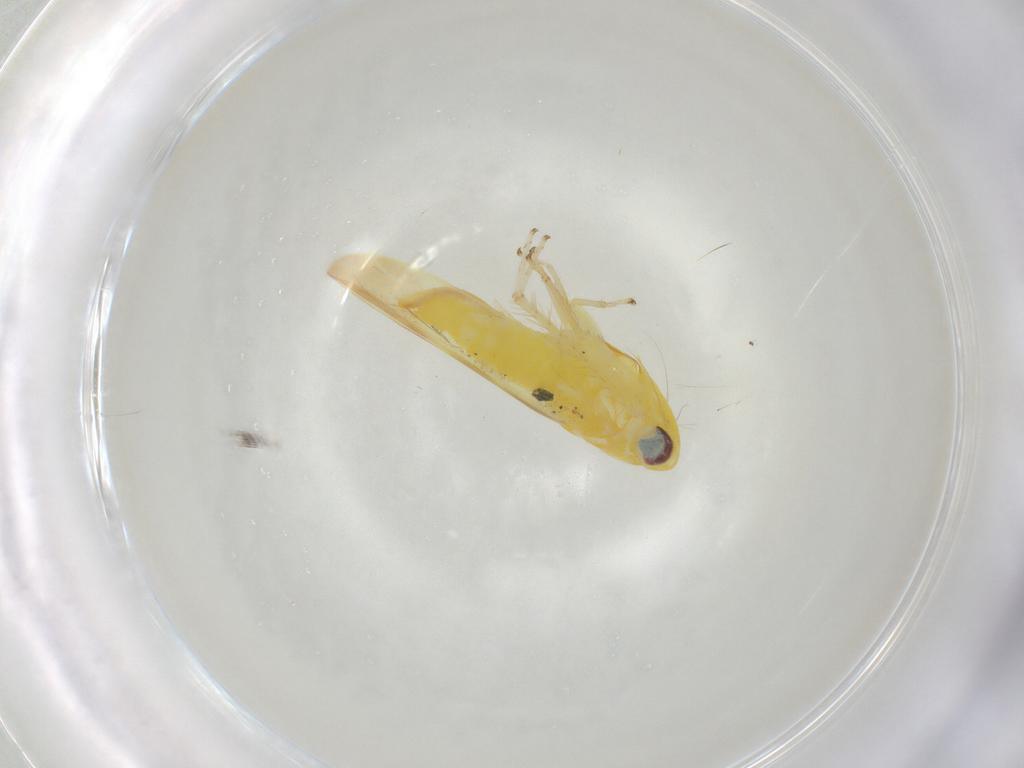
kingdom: Animalia
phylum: Arthropoda
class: Insecta
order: Hemiptera
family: Cicadellidae
